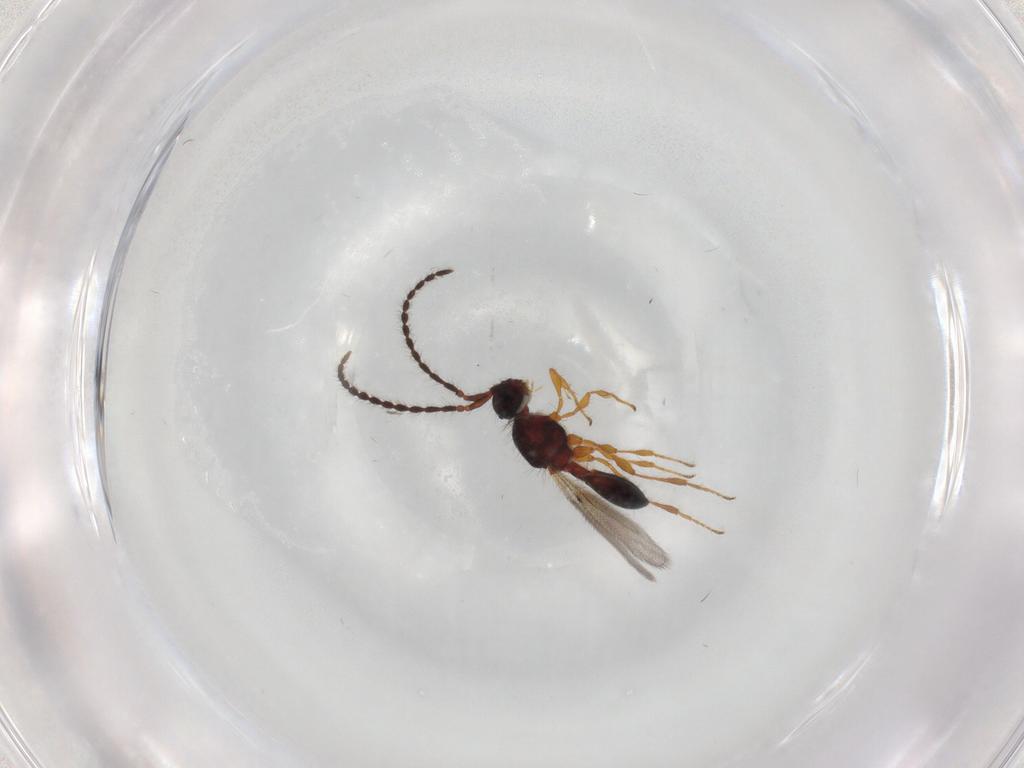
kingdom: Animalia
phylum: Arthropoda
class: Insecta
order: Hymenoptera
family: Diapriidae
